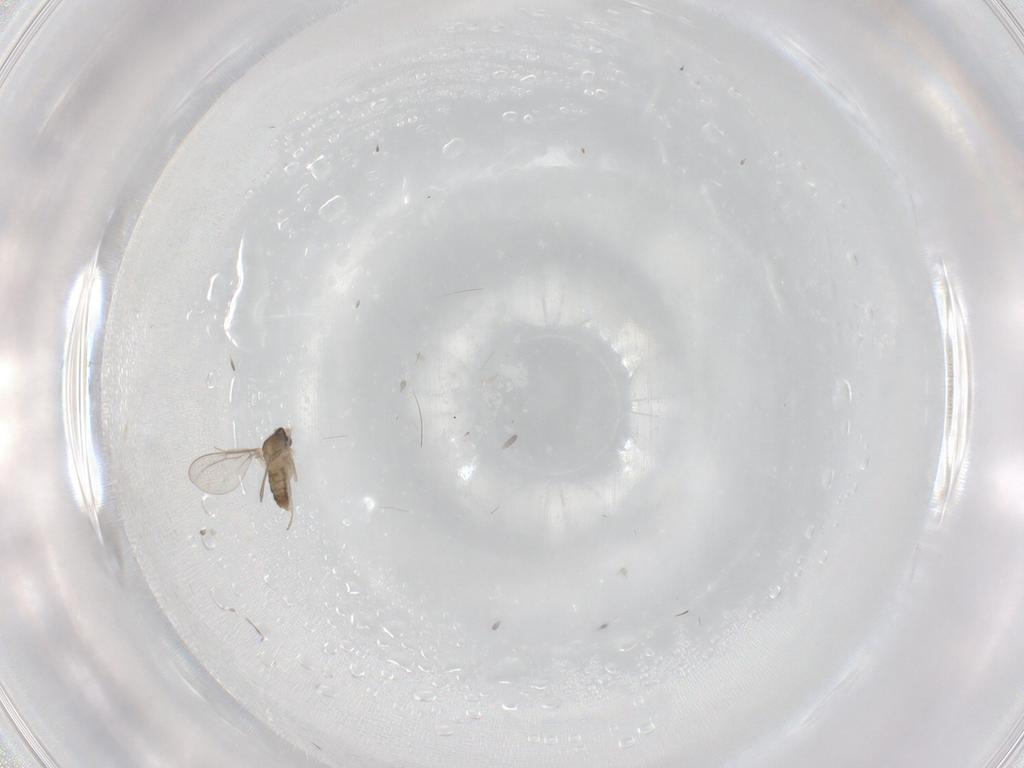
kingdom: Animalia
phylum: Arthropoda
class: Insecta
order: Diptera
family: Cecidomyiidae
